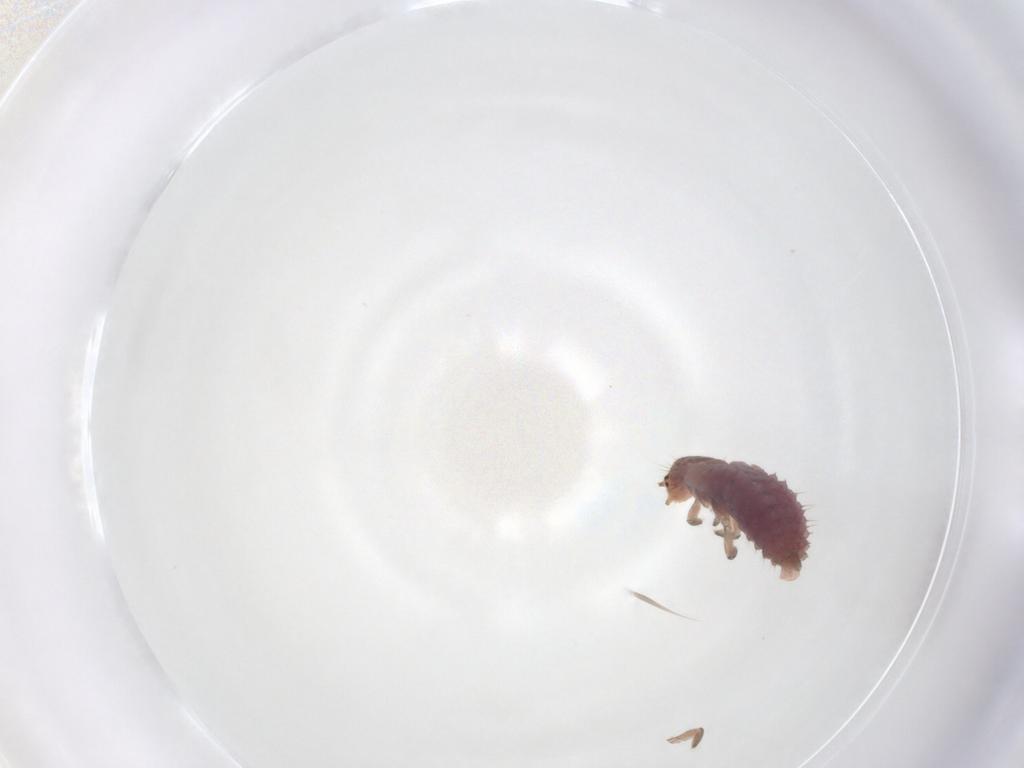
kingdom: Animalia
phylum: Arthropoda
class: Insecta
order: Coleoptera
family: Coccinellidae
